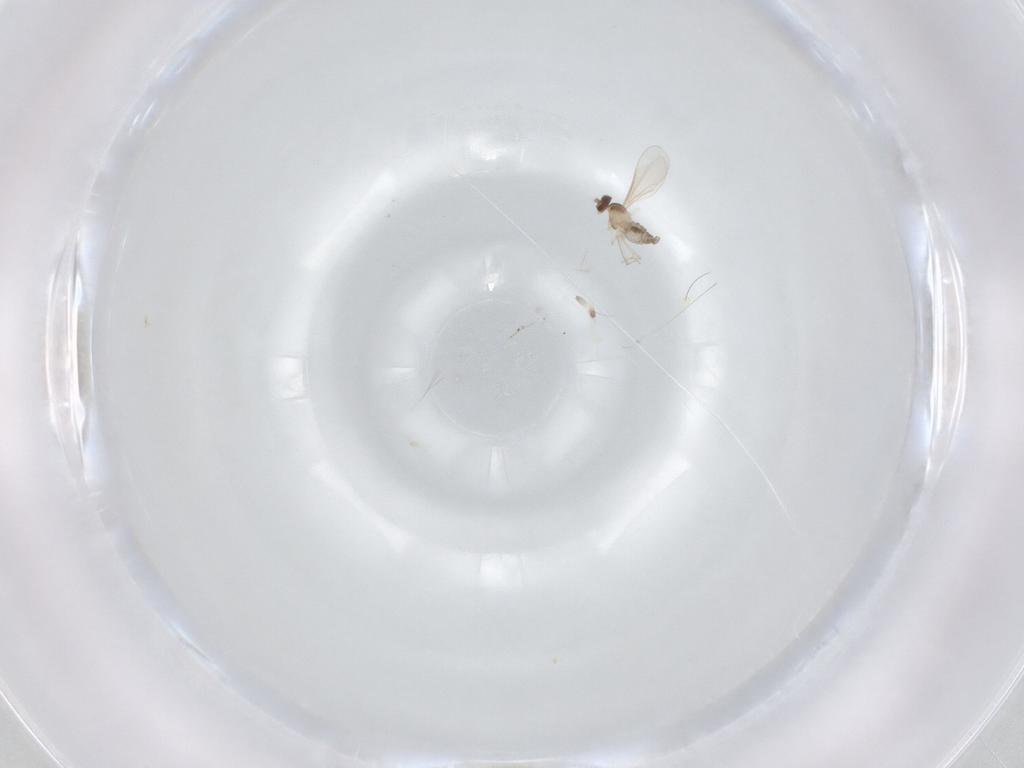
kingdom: Animalia
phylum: Arthropoda
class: Insecta
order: Diptera
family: Cecidomyiidae
